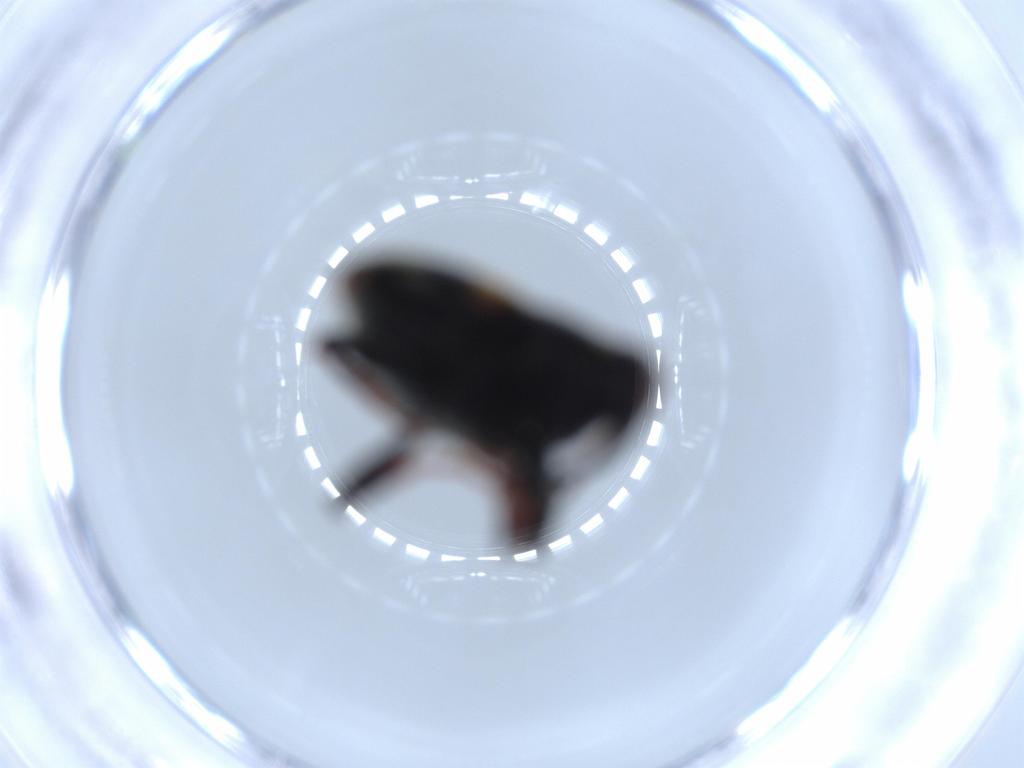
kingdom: Animalia
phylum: Arthropoda
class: Insecta
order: Coleoptera
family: Curculionidae
